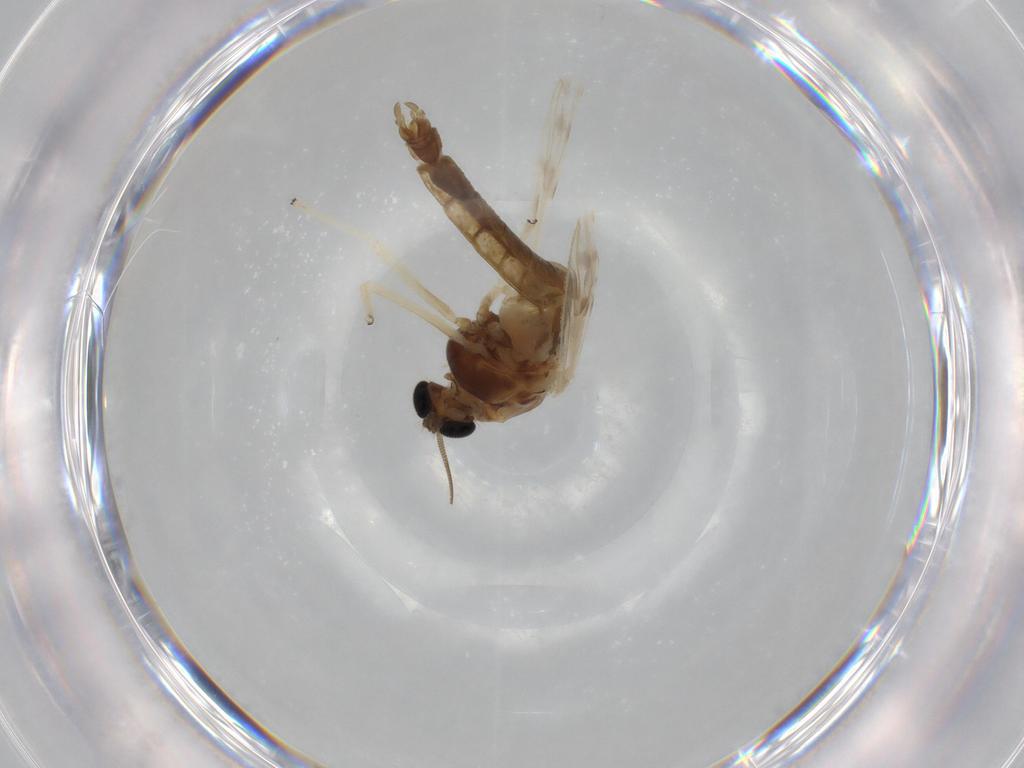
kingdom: Animalia
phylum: Arthropoda
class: Insecta
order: Diptera
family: Chironomidae
